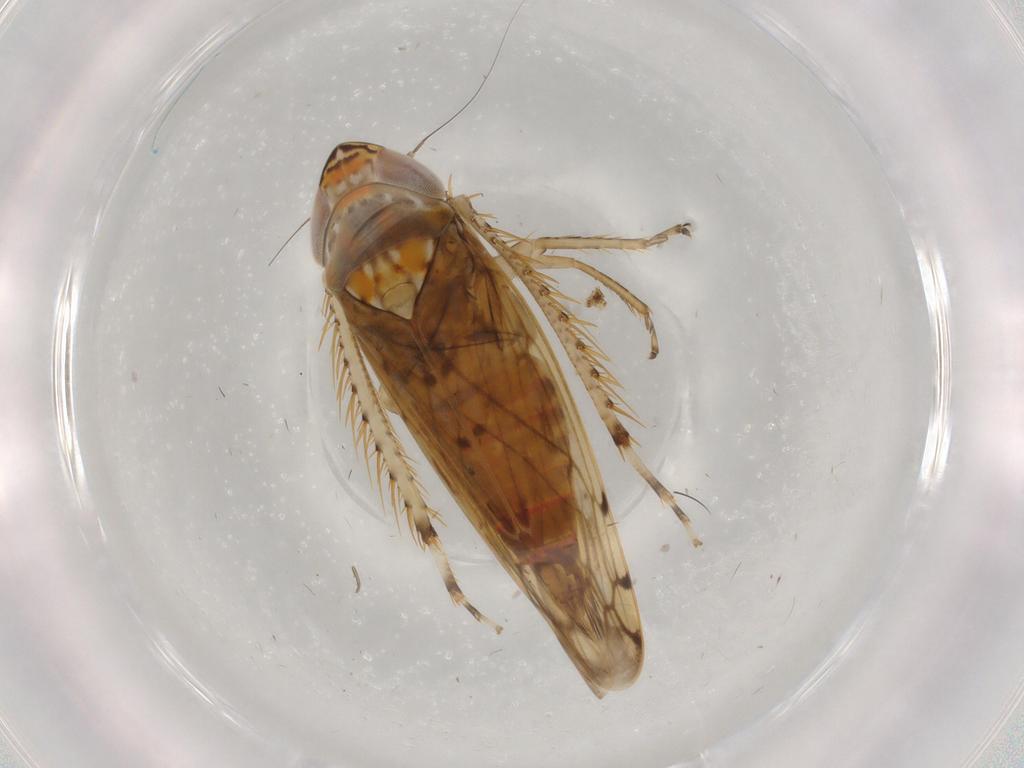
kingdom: Animalia
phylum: Arthropoda
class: Insecta
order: Hemiptera
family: Cicadellidae
